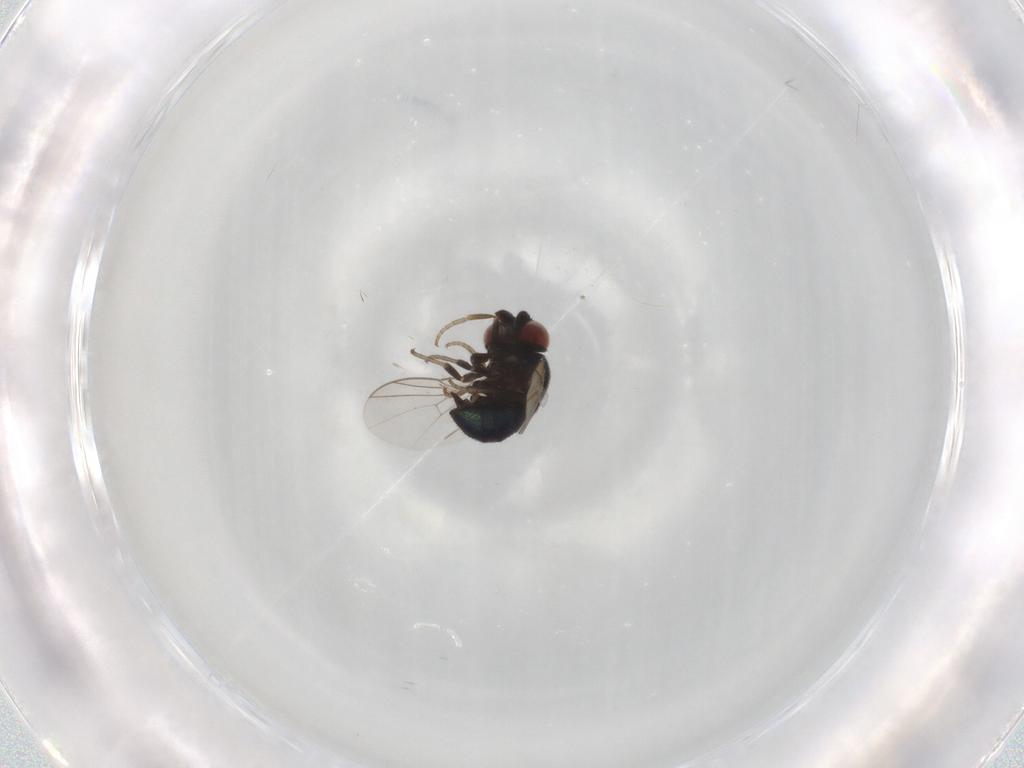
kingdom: Animalia
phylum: Arthropoda
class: Insecta
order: Diptera
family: Cryptochetidae
